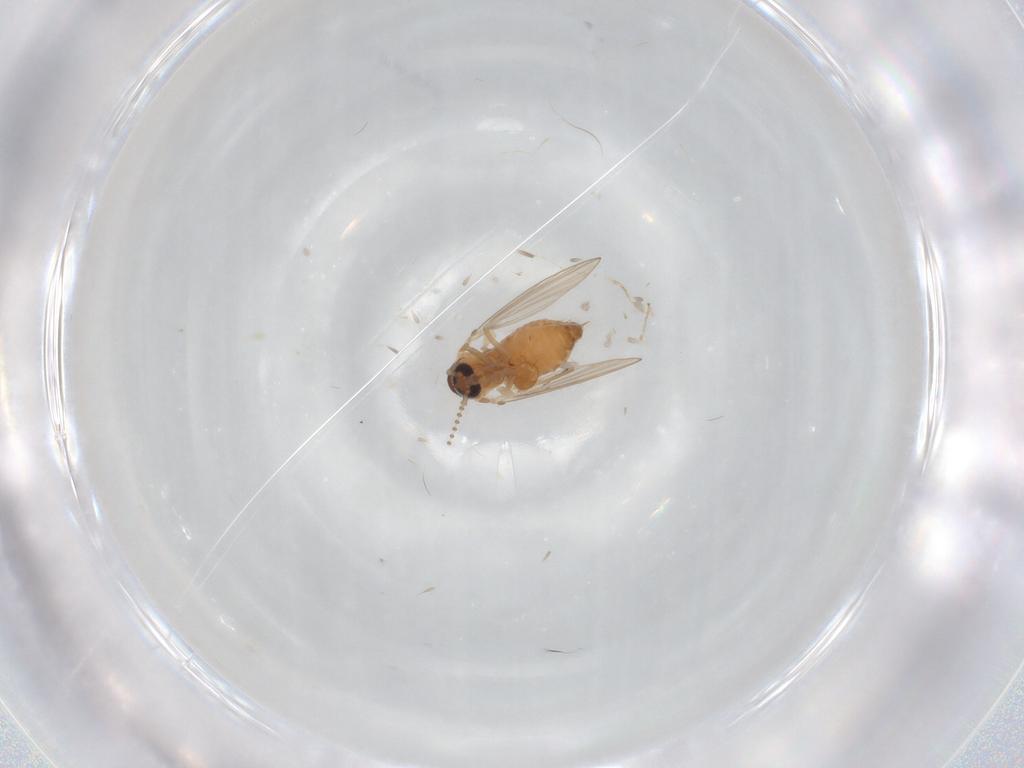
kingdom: Animalia
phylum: Arthropoda
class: Insecta
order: Diptera
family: Psychodidae
